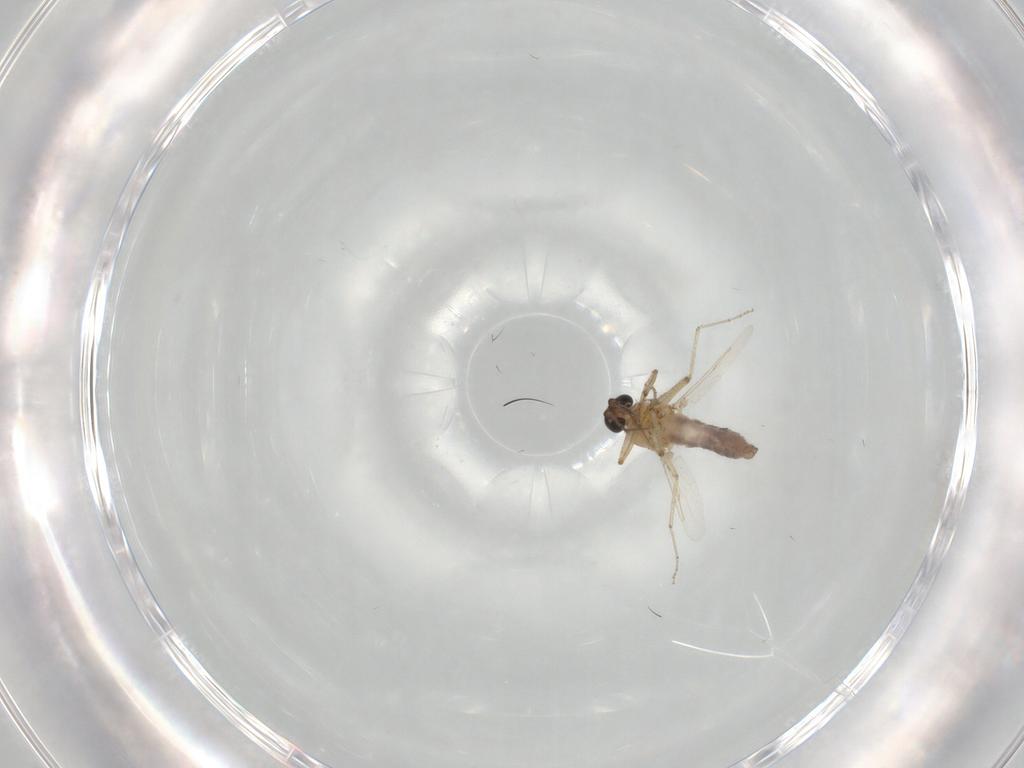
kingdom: Animalia
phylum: Arthropoda
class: Insecta
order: Diptera
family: Ceratopogonidae
